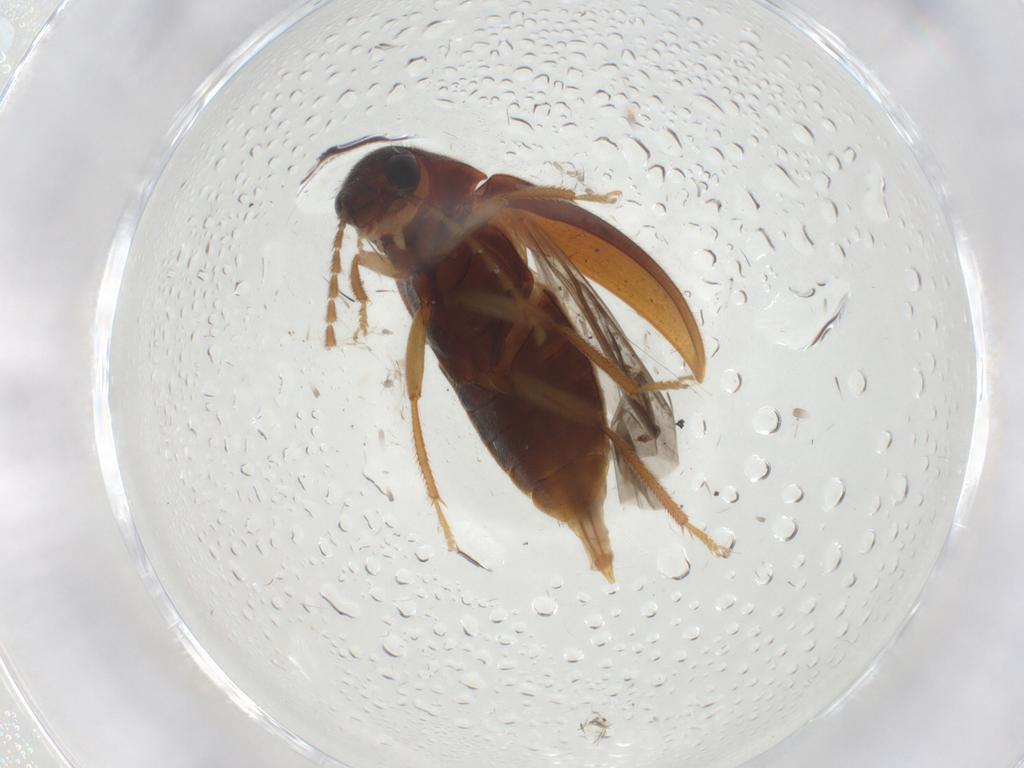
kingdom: Animalia
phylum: Arthropoda
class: Insecta
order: Coleoptera
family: Ptilodactylidae
